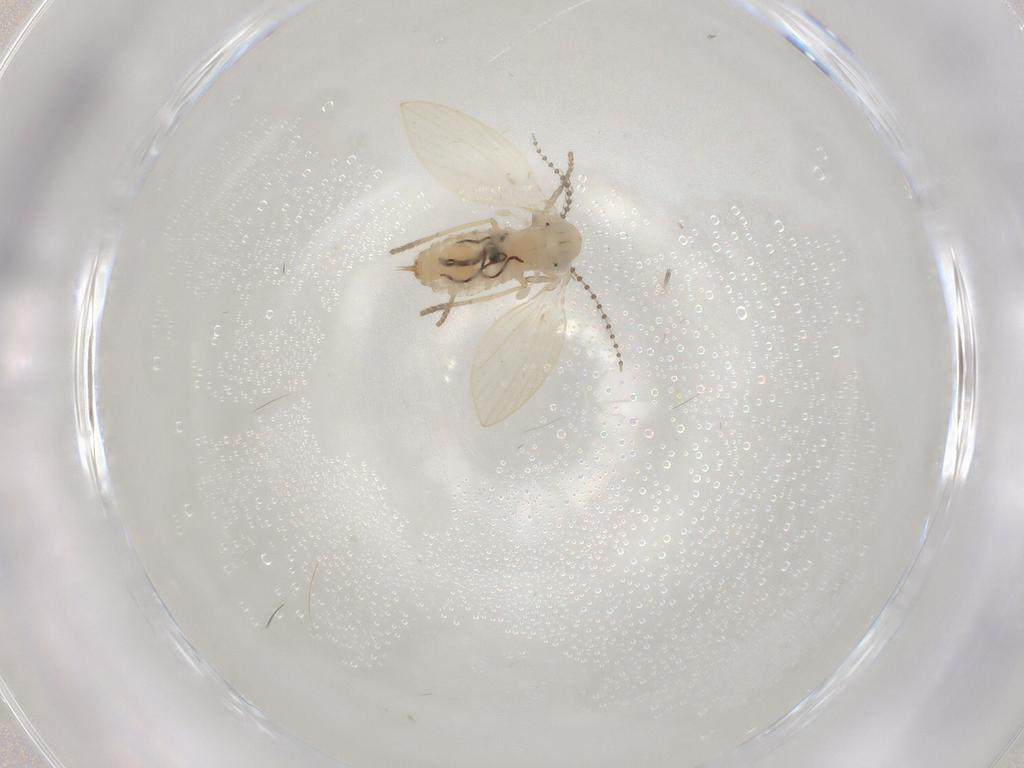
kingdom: Animalia
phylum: Arthropoda
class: Insecta
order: Diptera
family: Psychodidae
